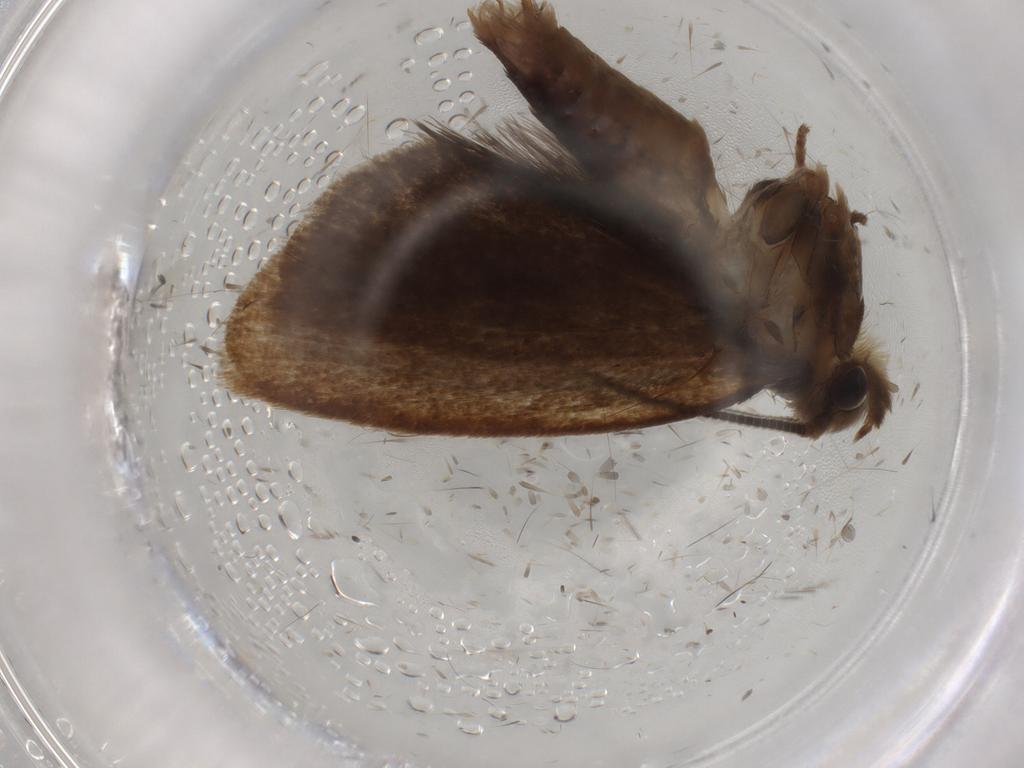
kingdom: Animalia
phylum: Arthropoda
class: Insecta
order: Lepidoptera
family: Tineidae
